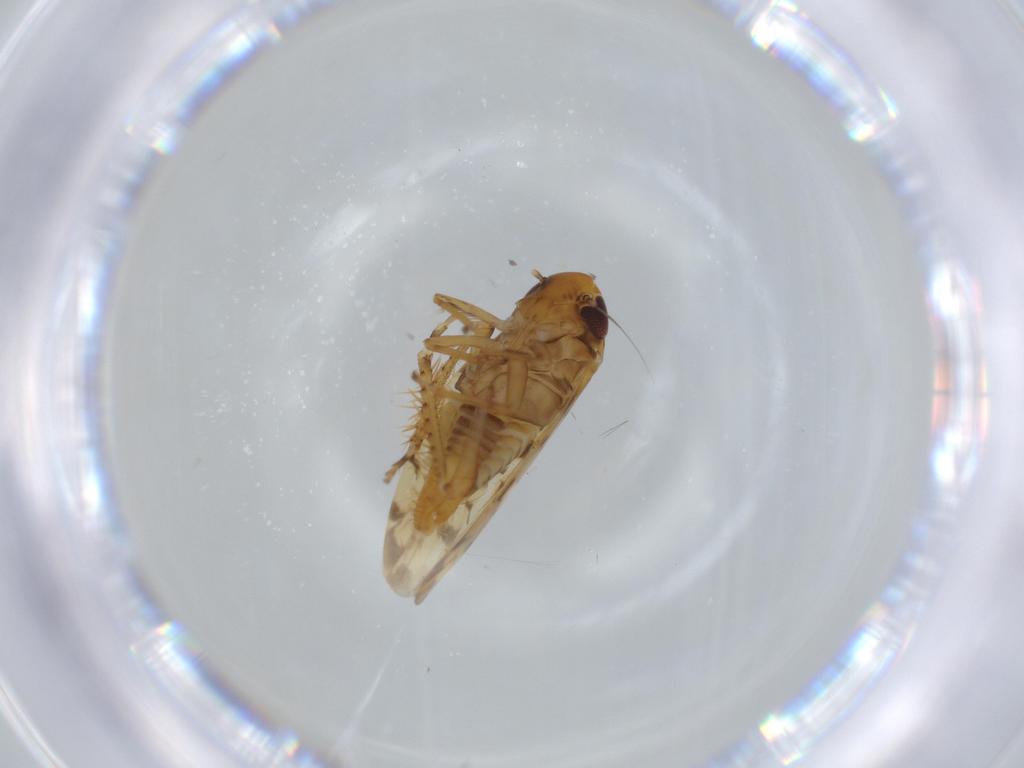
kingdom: Animalia
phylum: Arthropoda
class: Insecta
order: Hemiptera
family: Cicadellidae
